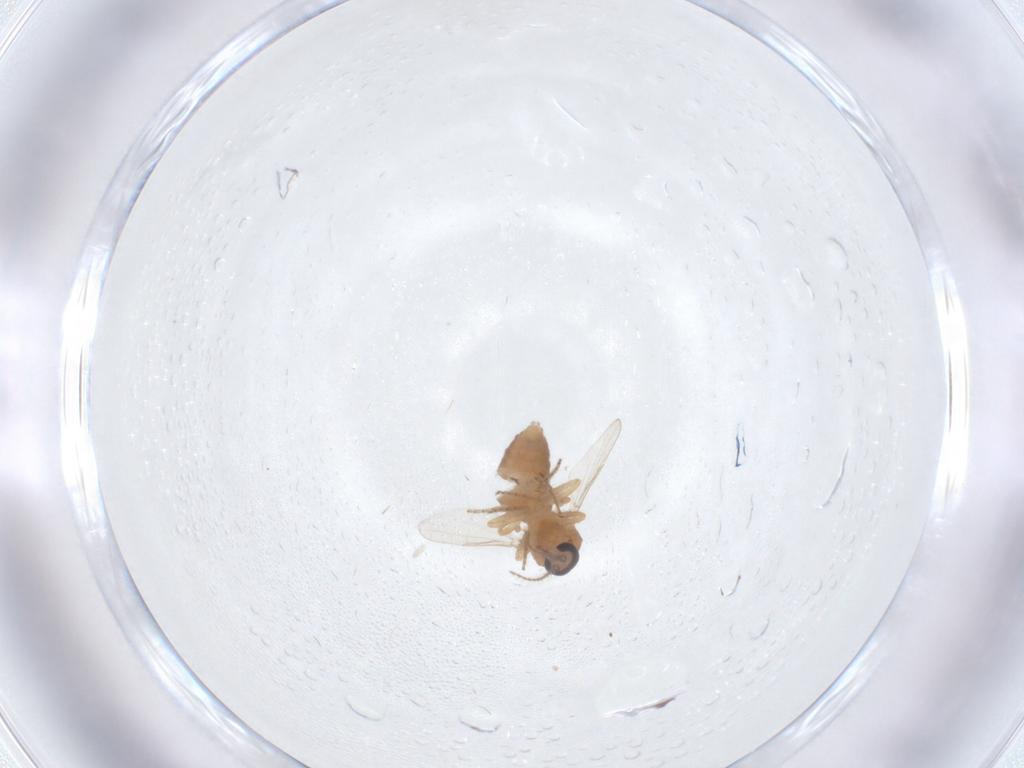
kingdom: Animalia
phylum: Arthropoda
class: Insecta
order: Diptera
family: Ceratopogonidae
